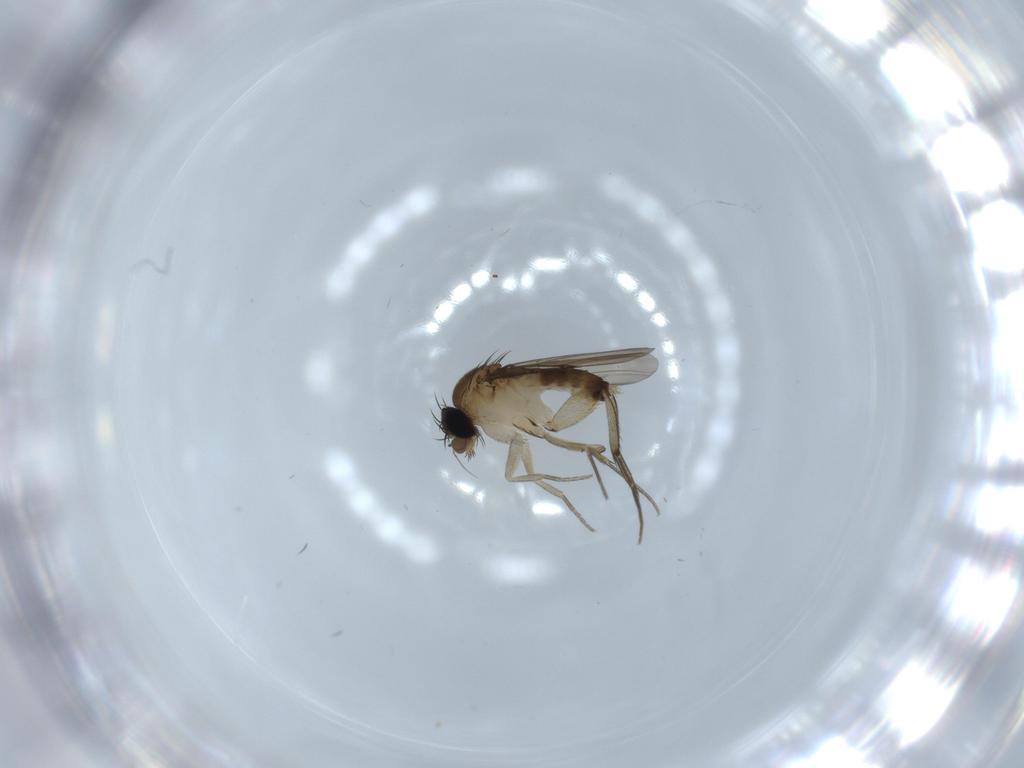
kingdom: Animalia
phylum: Arthropoda
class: Insecta
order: Diptera
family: Phoridae
